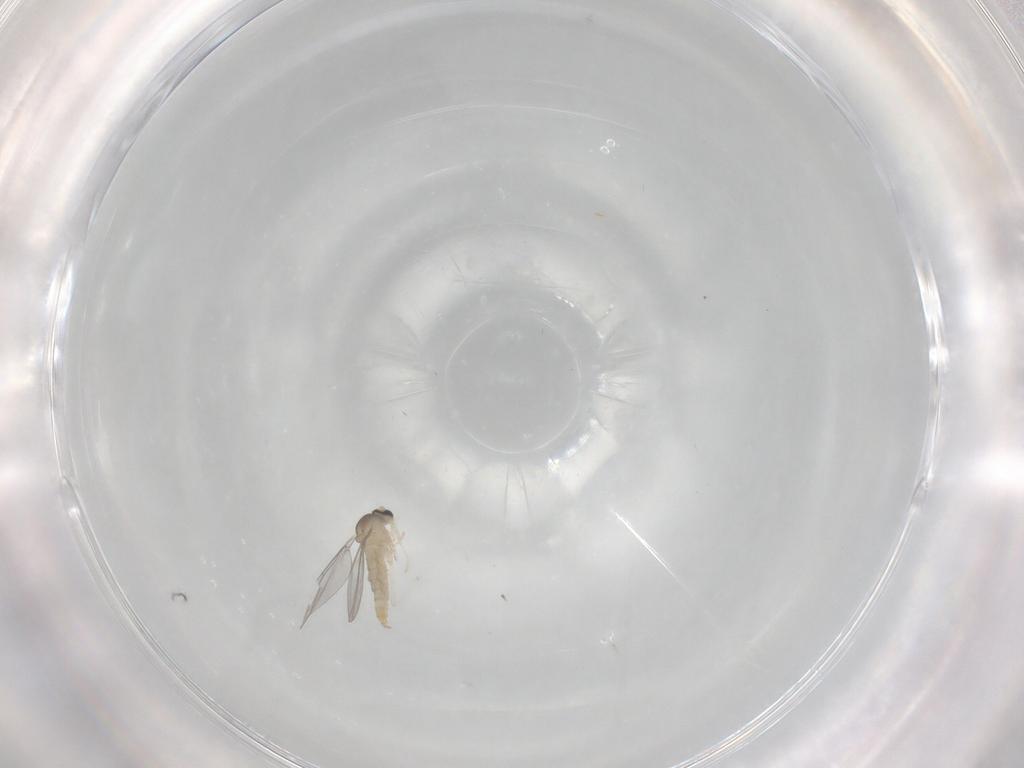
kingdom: Animalia
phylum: Arthropoda
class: Insecta
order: Diptera
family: Cecidomyiidae
